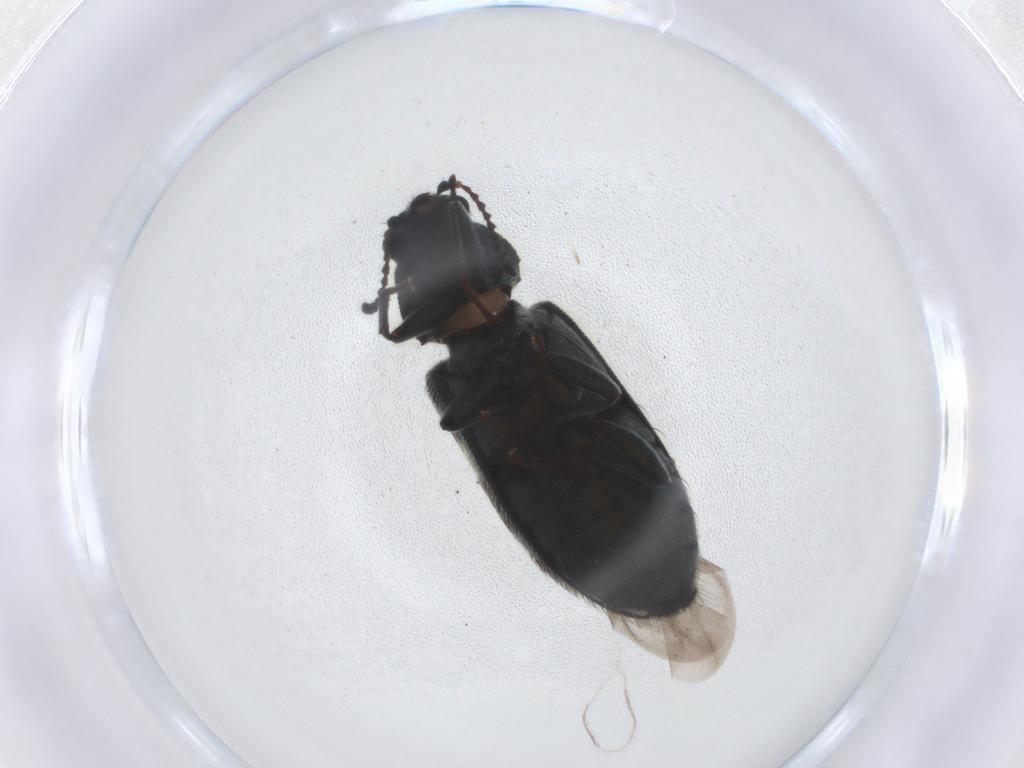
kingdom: Animalia
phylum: Arthropoda
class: Insecta
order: Coleoptera
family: Melyridae
